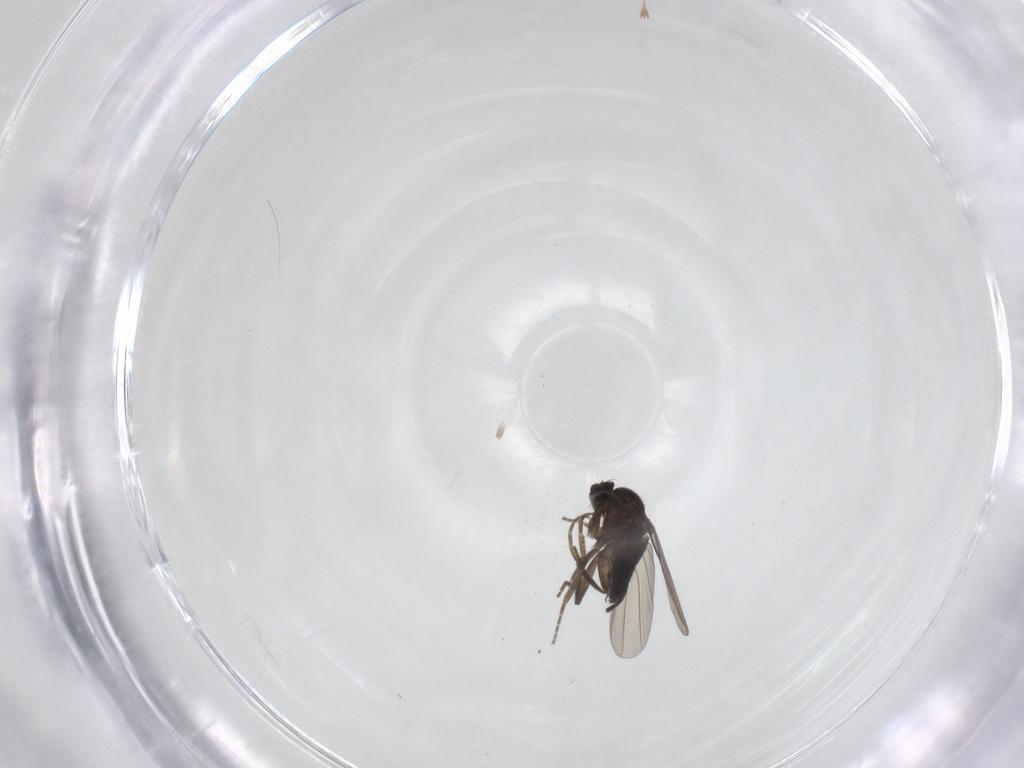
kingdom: Animalia
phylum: Arthropoda
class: Insecta
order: Diptera
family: Phoridae
